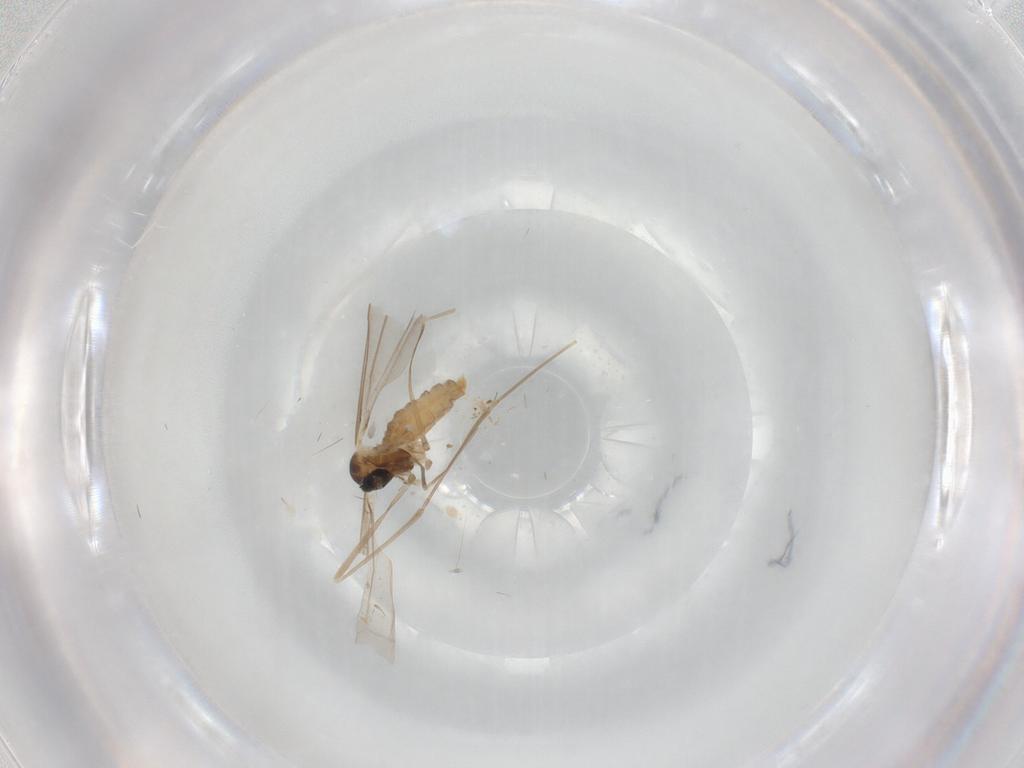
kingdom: Animalia
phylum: Arthropoda
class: Insecta
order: Diptera
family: Cecidomyiidae
